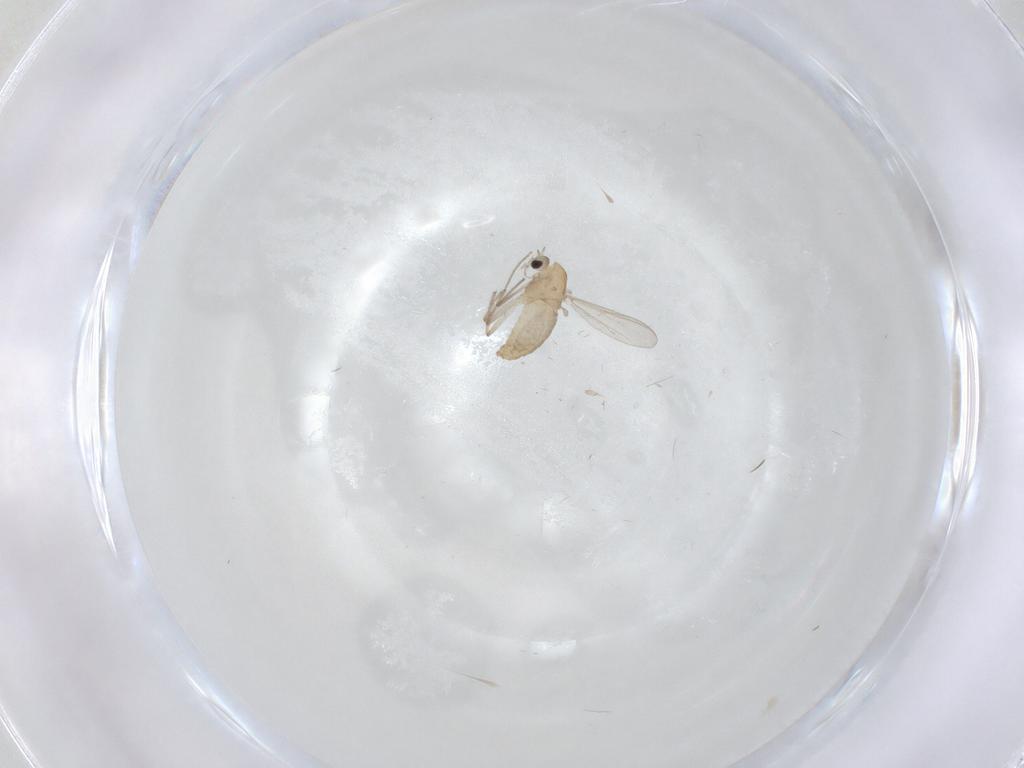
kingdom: Animalia
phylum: Arthropoda
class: Insecta
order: Diptera
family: Chironomidae
